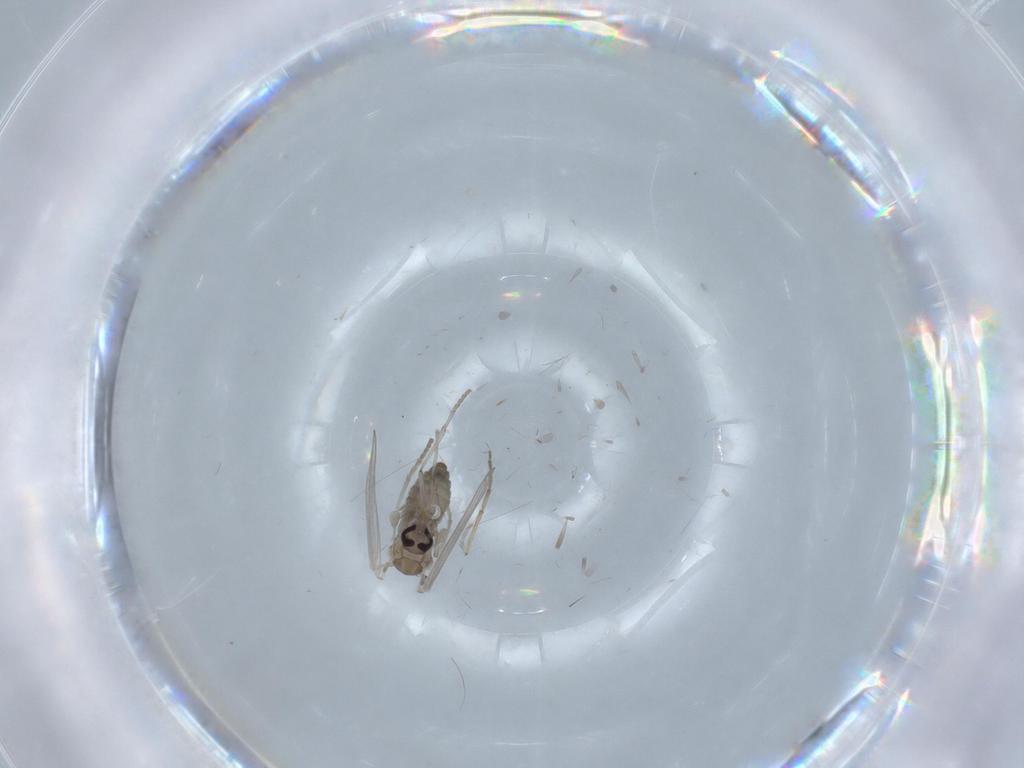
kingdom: Animalia
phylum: Arthropoda
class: Insecta
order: Diptera
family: Psychodidae
